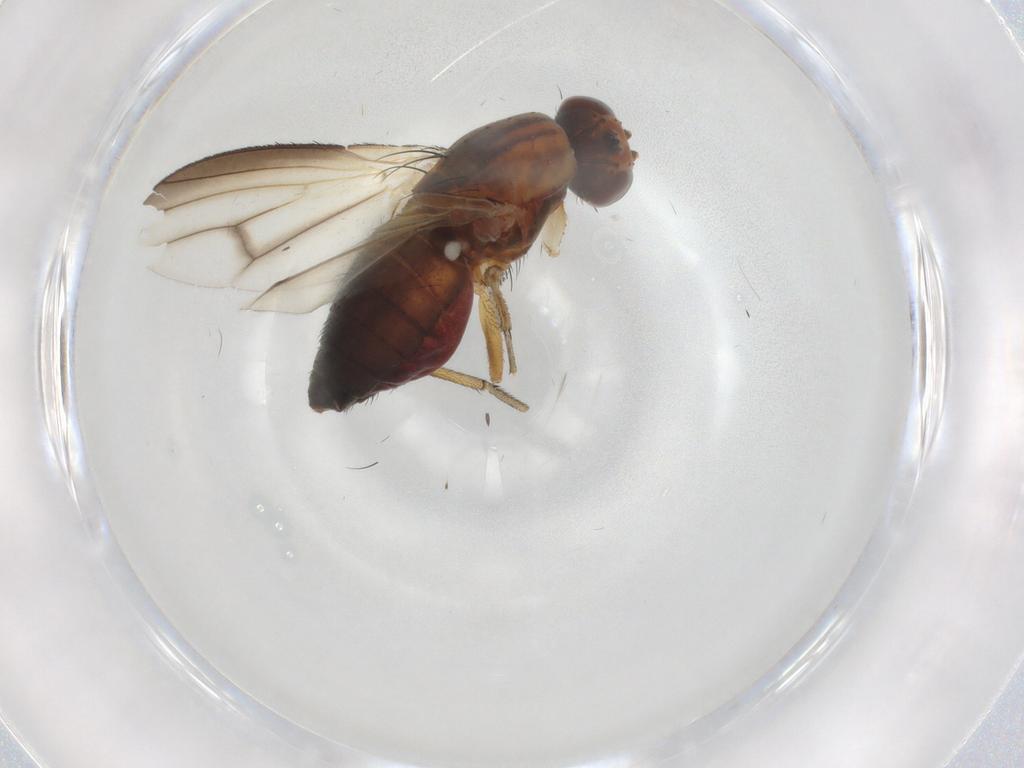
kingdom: Animalia
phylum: Arthropoda
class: Insecta
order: Diptera
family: Heleomyzidae
